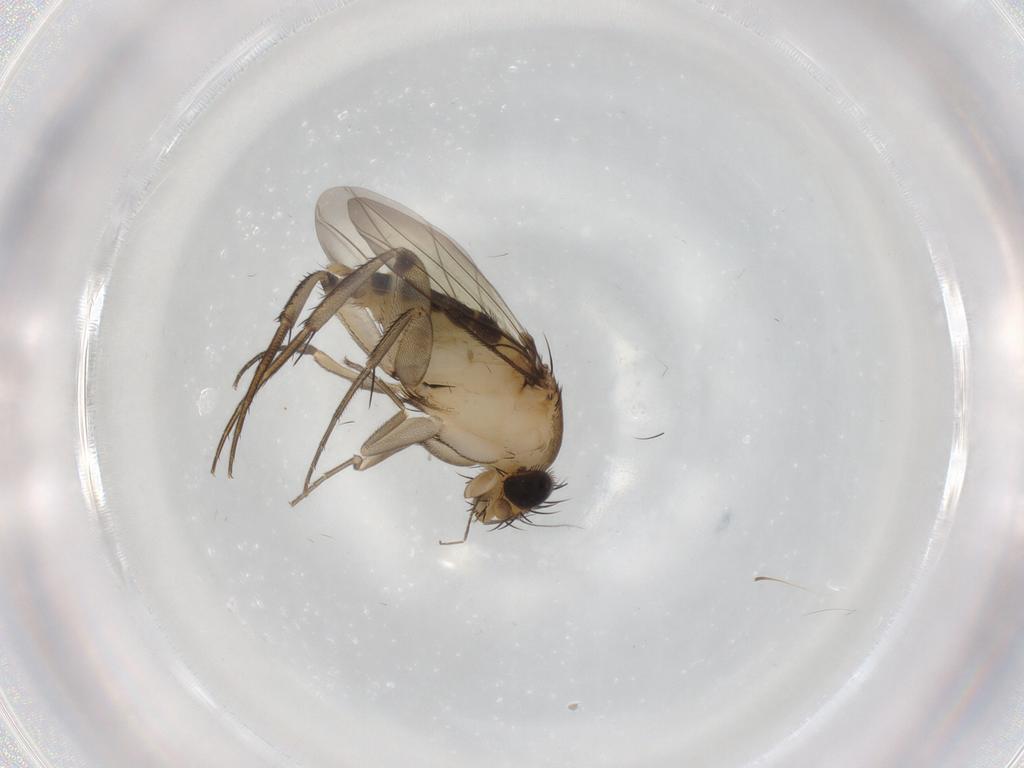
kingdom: Animalia
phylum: Arthropoda
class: Insecta
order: Diptera
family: Phoridae
